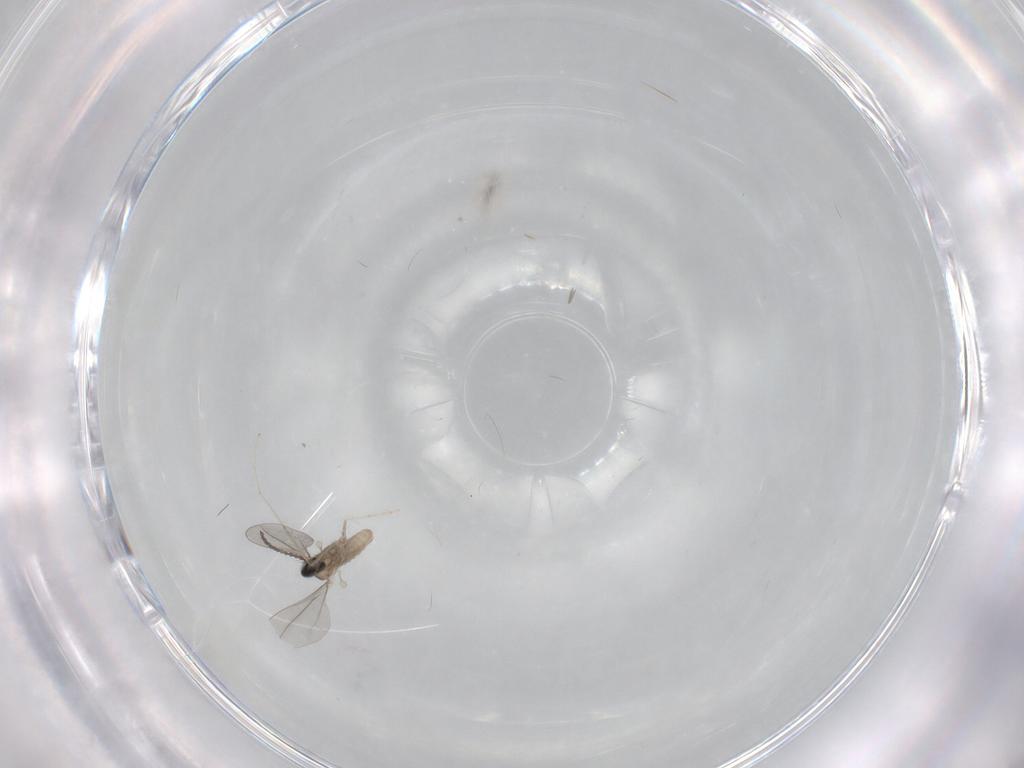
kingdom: Animalia
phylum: Arthropoda
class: Insecta
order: Diptera
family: Cecidomyiidae
